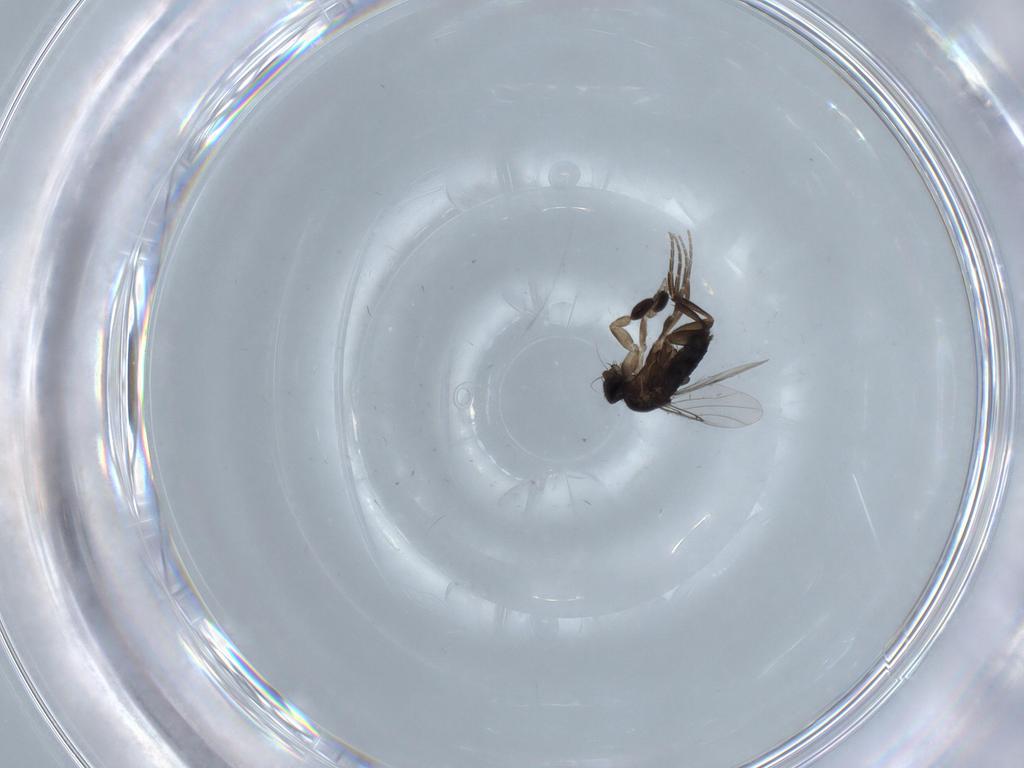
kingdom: Animalia
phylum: Arthropoda
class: Insecta
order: Diptera
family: Phoridae
